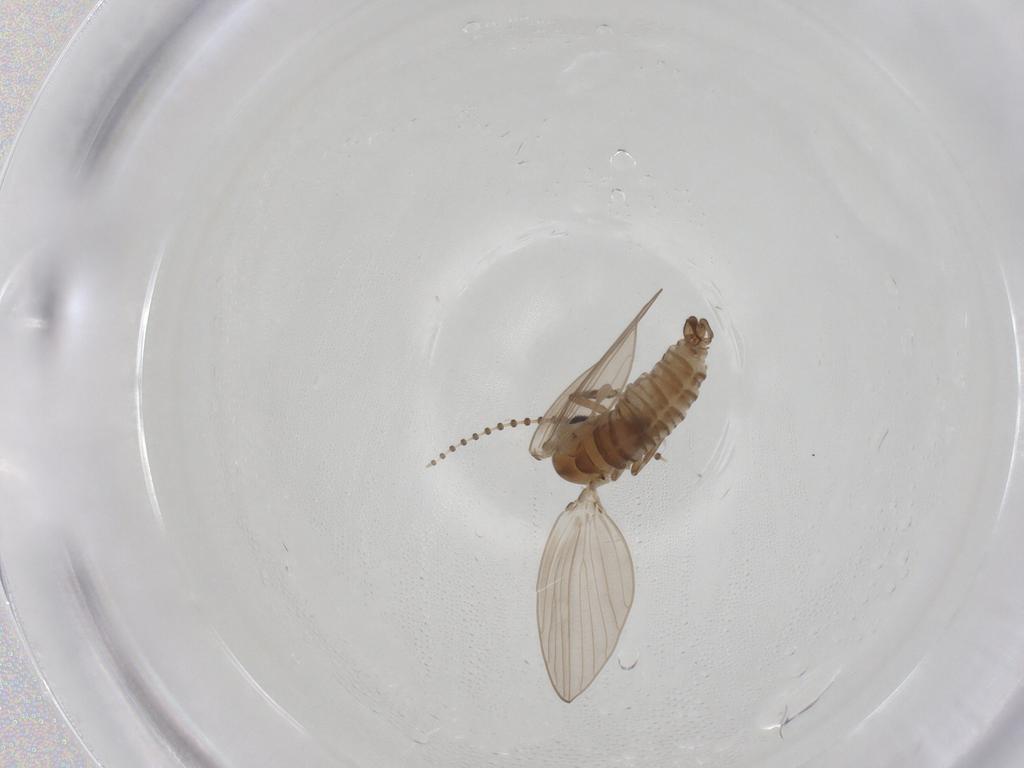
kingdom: Animalia
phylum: Arthropoda
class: Insecta
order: Diptera
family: Psychodidae
